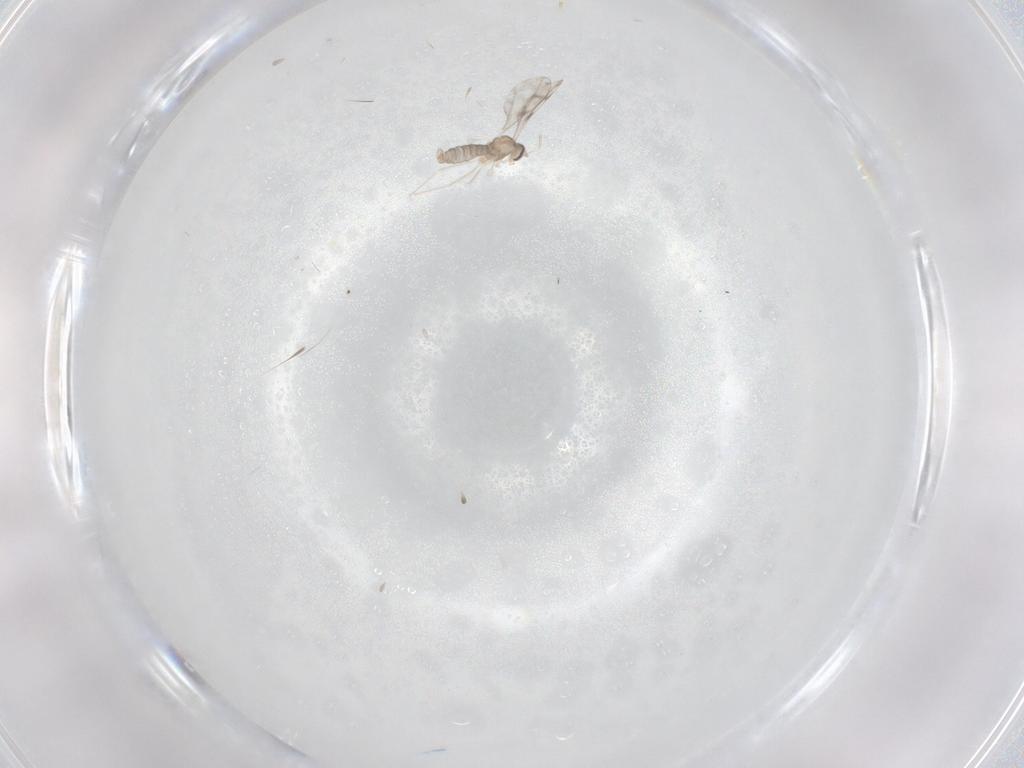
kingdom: Animalia
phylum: Arthropoda
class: Insecta
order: Diptera
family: Cecidomyiidae
